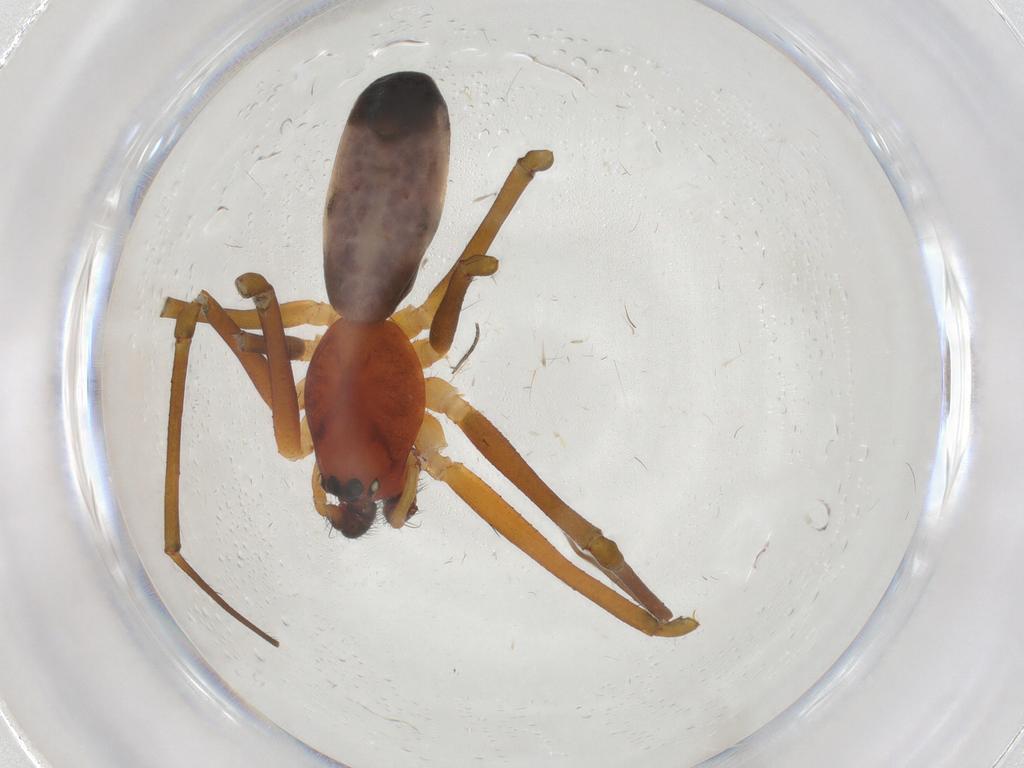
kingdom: Animalia
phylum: Arthropoda
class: Arachnida
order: Araneae
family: Linyphiidae
